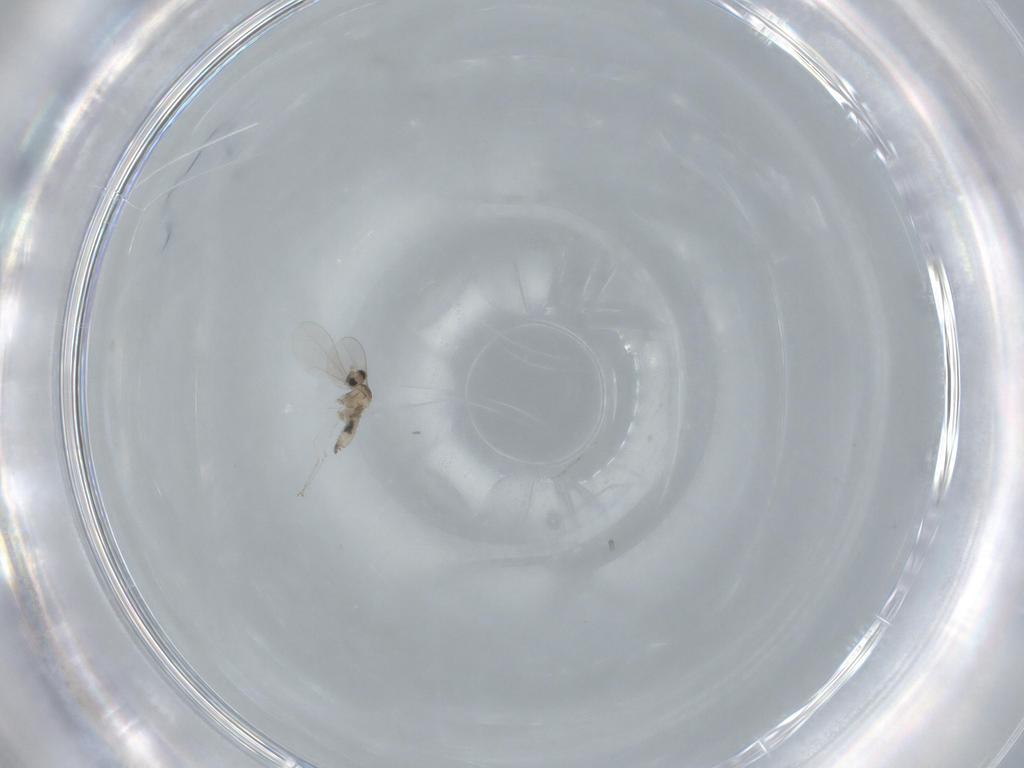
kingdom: Animalia
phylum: Arthropoda
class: Insecta
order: Diptera
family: Cecidomyiidae
